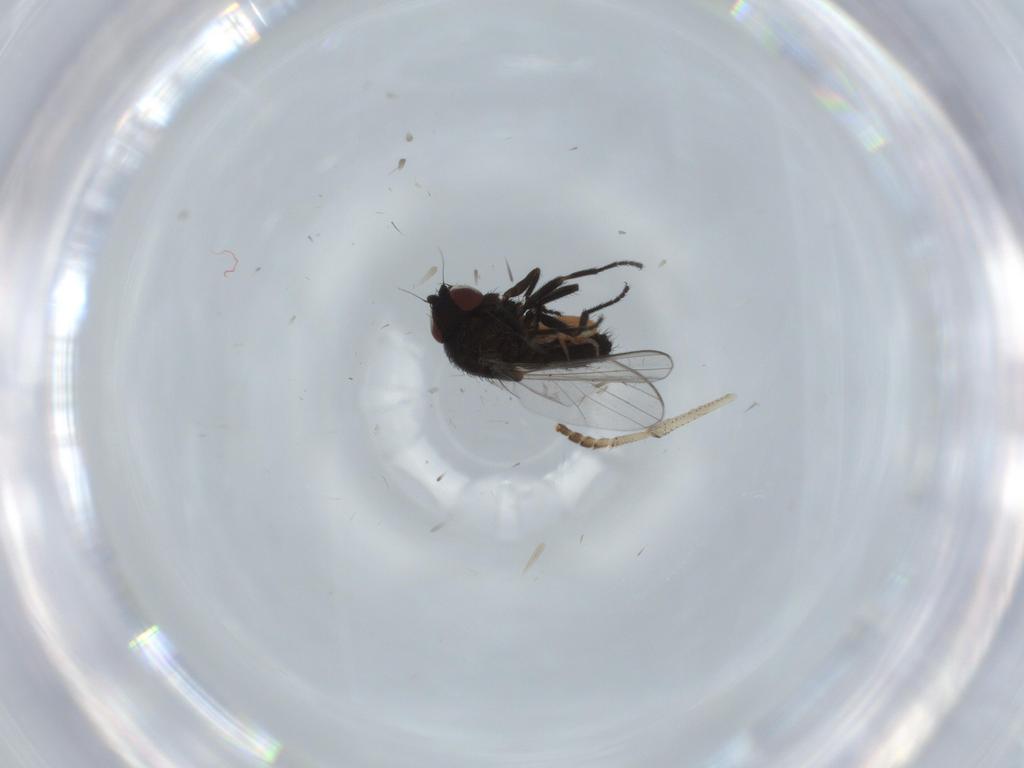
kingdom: Animalia
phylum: Arthropoda
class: Insecta
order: Diptera
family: Milichiidae
